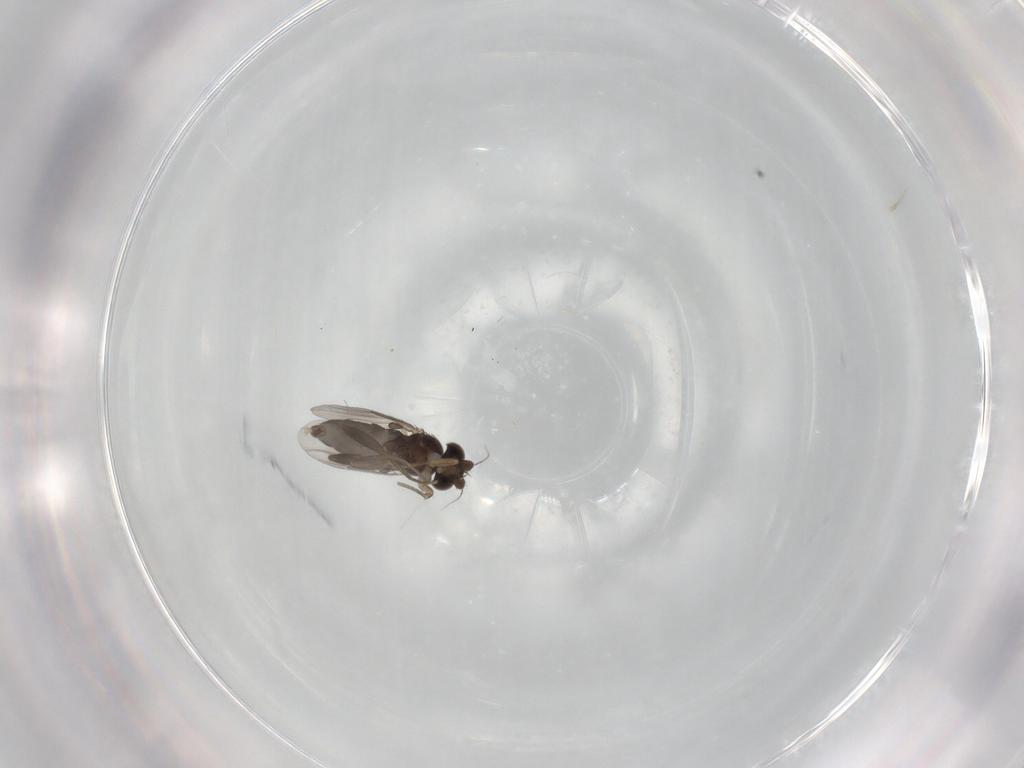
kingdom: Animalia
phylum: Arthropoda
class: Insecta
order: Diptera
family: Phoridae
